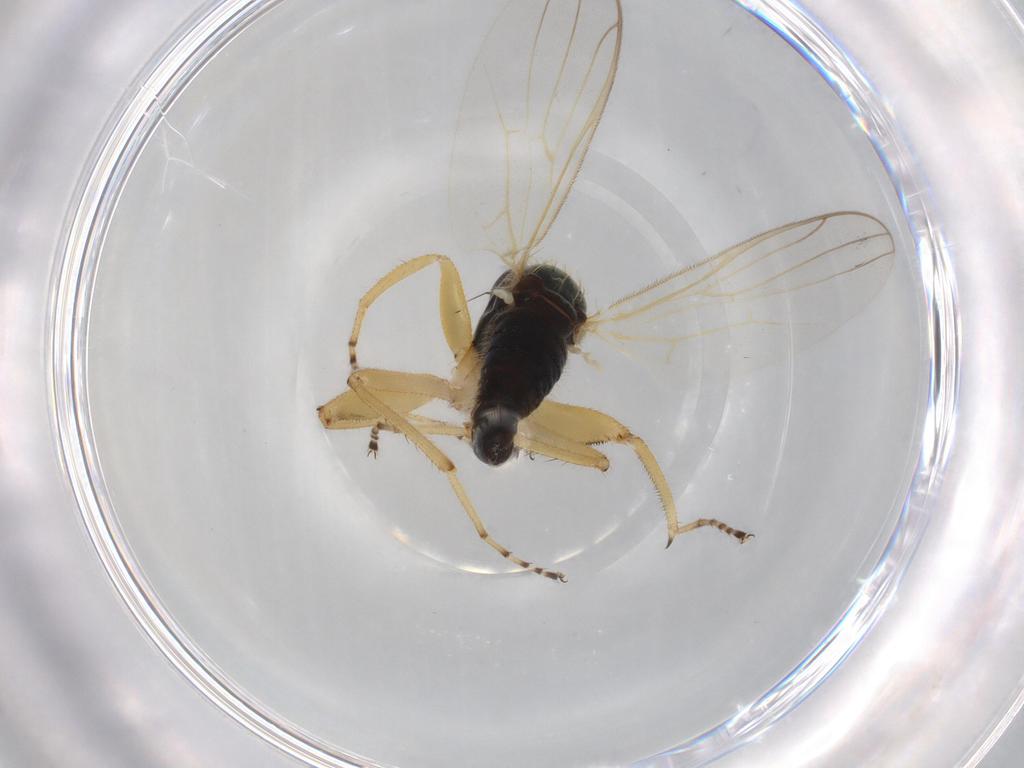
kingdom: Animalia
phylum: Arthropoda
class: Insecta
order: Diptera
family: Hybotidae
